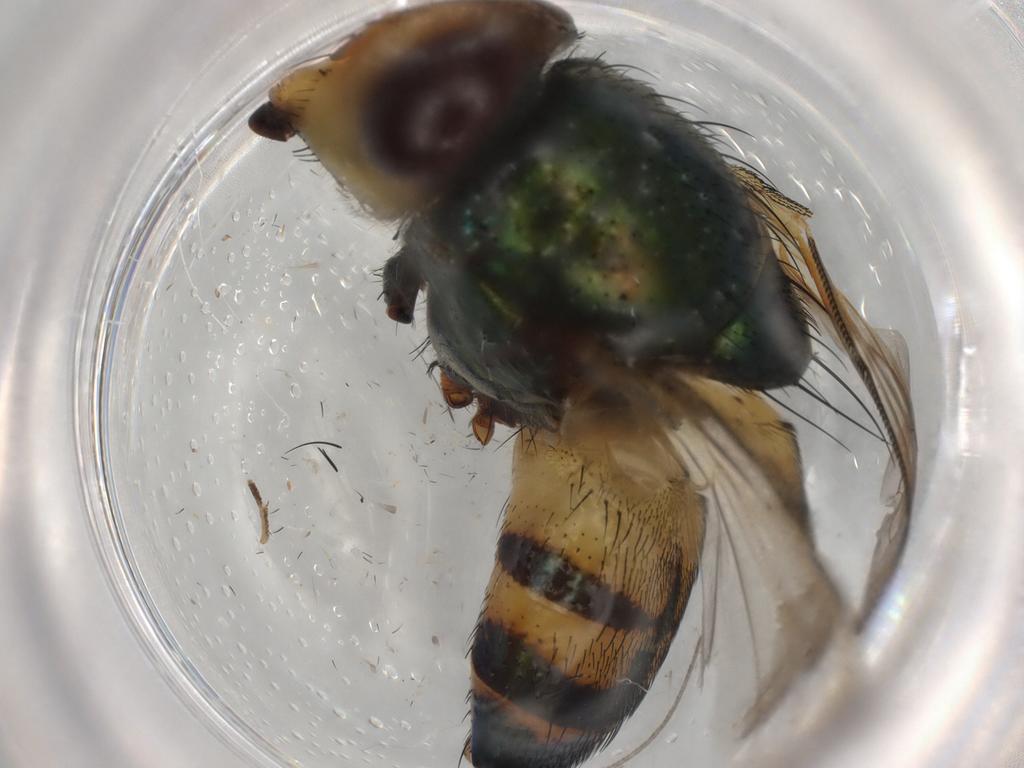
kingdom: Animalia
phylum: Arthropoda
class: Insecta
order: Diptera
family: Calliphoridae
